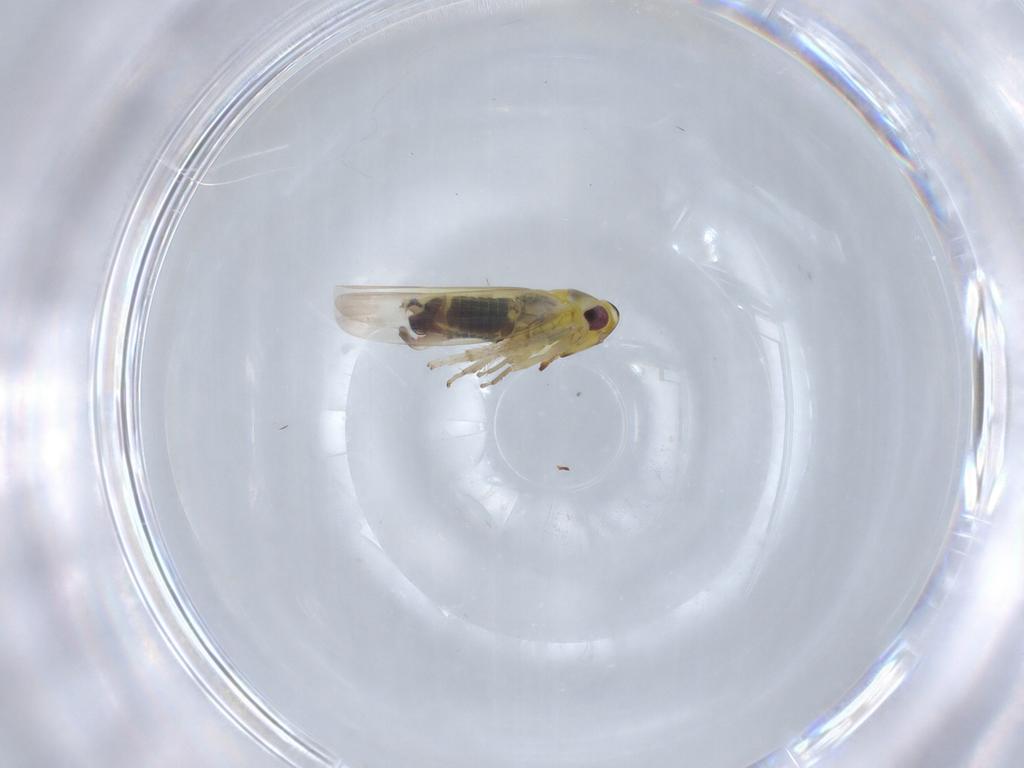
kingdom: Animalia
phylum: Arthropoda
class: Insecta
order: Hemiptera
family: Cicadellidae
